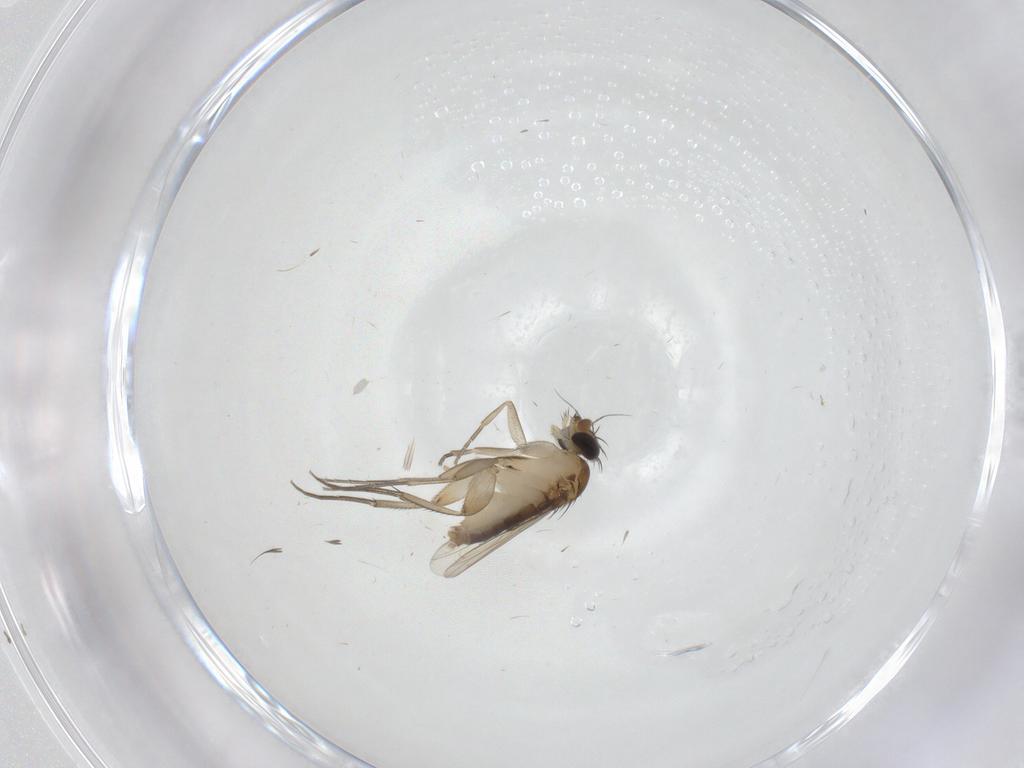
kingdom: Animalia
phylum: Arthropoda
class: Insecta
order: Diptera
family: Phoridae
